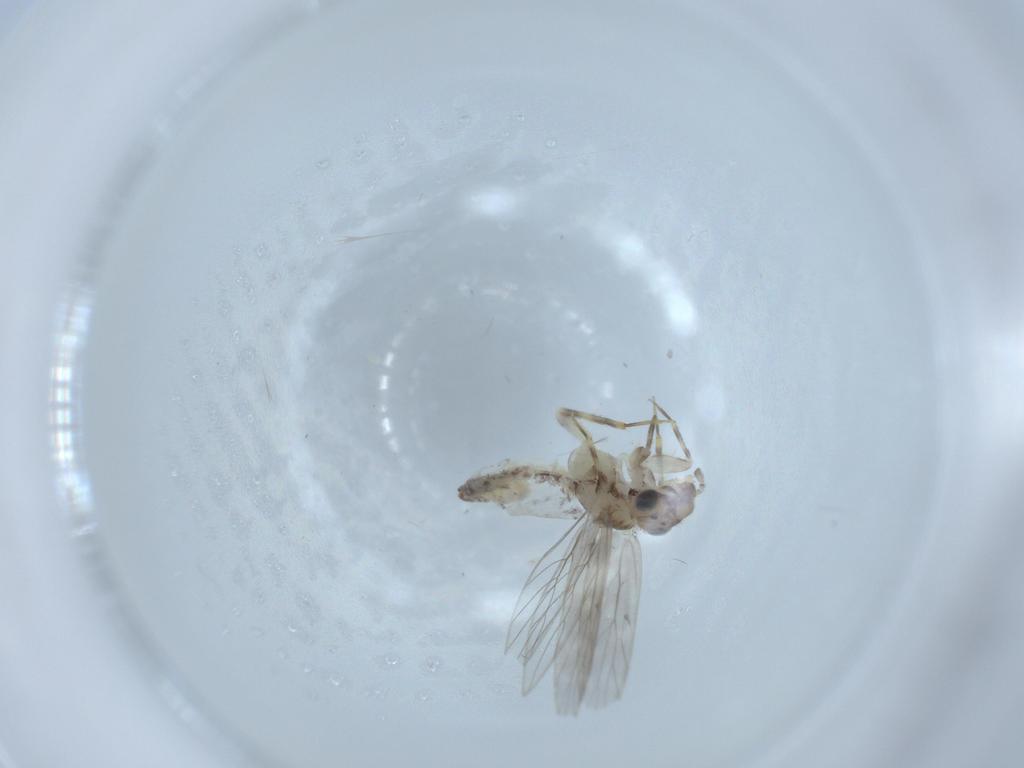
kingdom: Animalia
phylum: Arthropoda
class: Insecta
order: Psocodea
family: Lepidopsocidae
